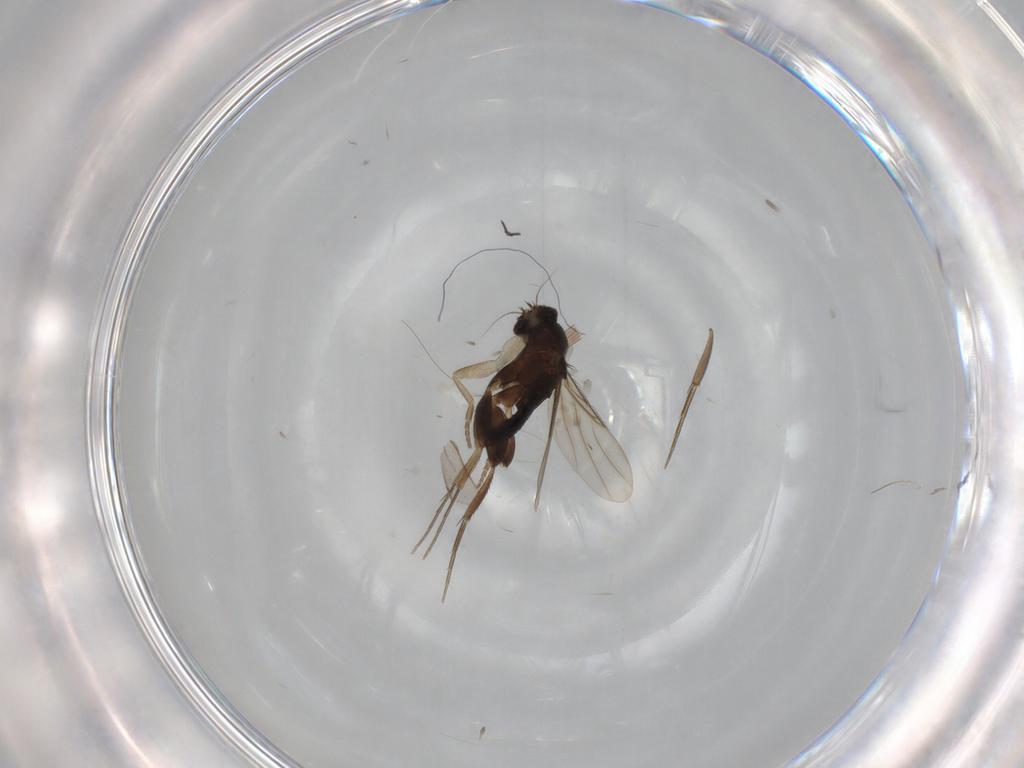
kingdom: Animalia
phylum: Arthropoda
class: Insecta
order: Diptera
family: Phoridae
